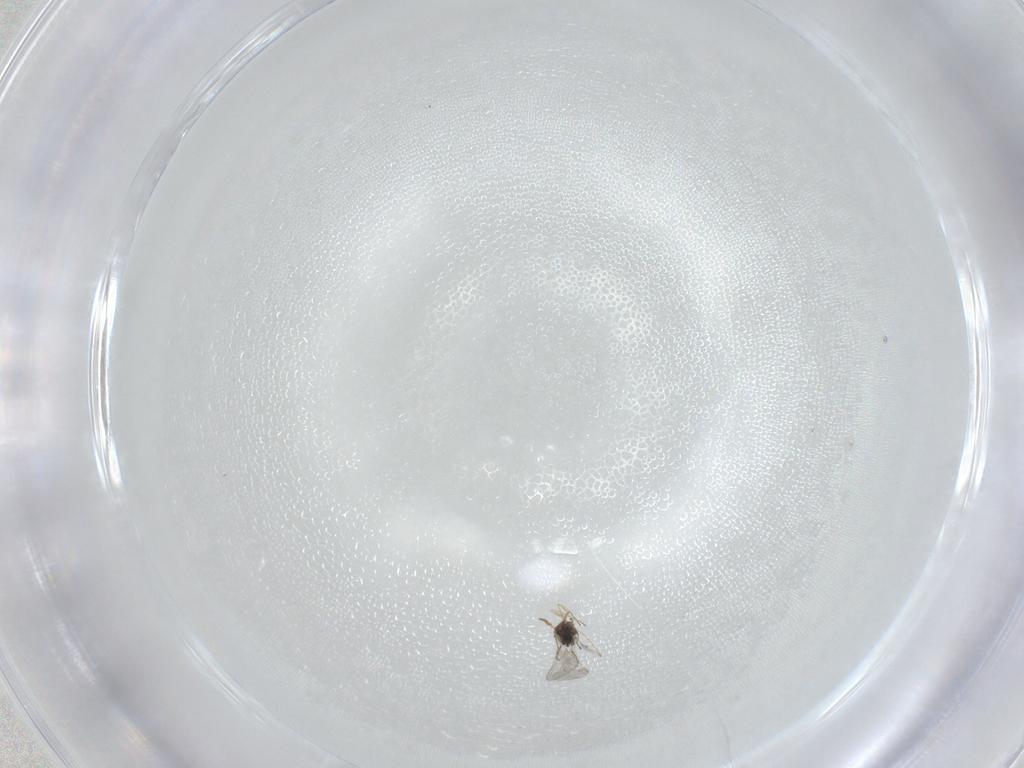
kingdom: Animalia
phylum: Arthropoda
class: Insecta
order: Hymenoptera
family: Trichogrammatidae
